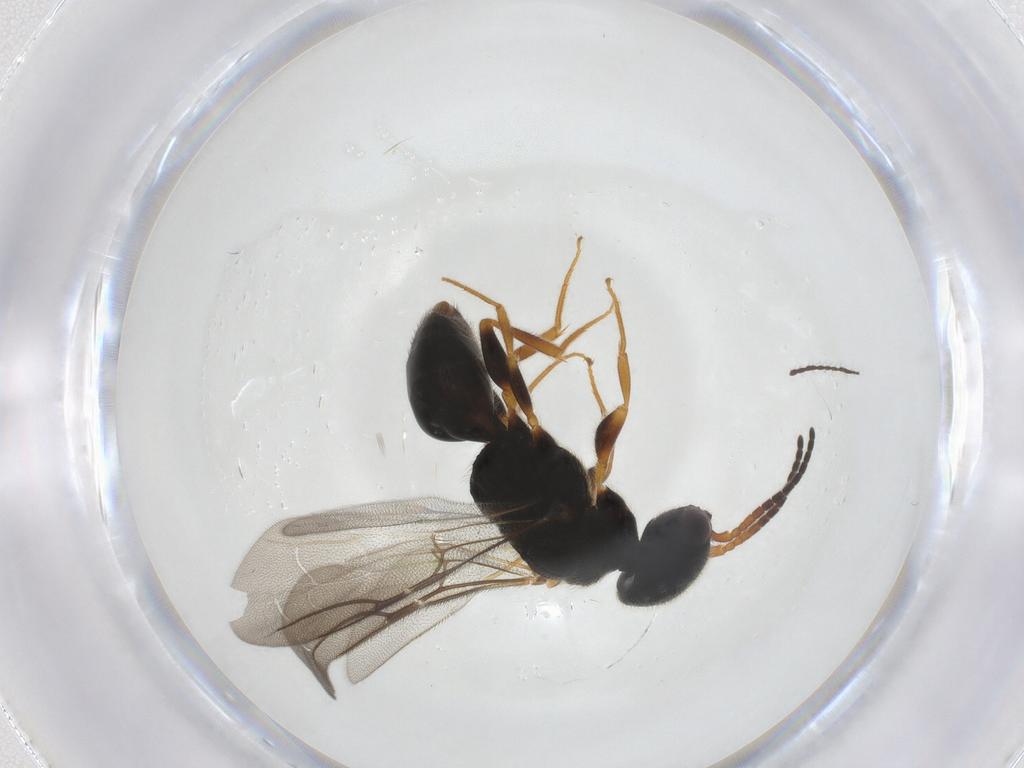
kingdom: Animalia
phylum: Arthropoda
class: Insecta
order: Hymenoptera
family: Bethylidae
